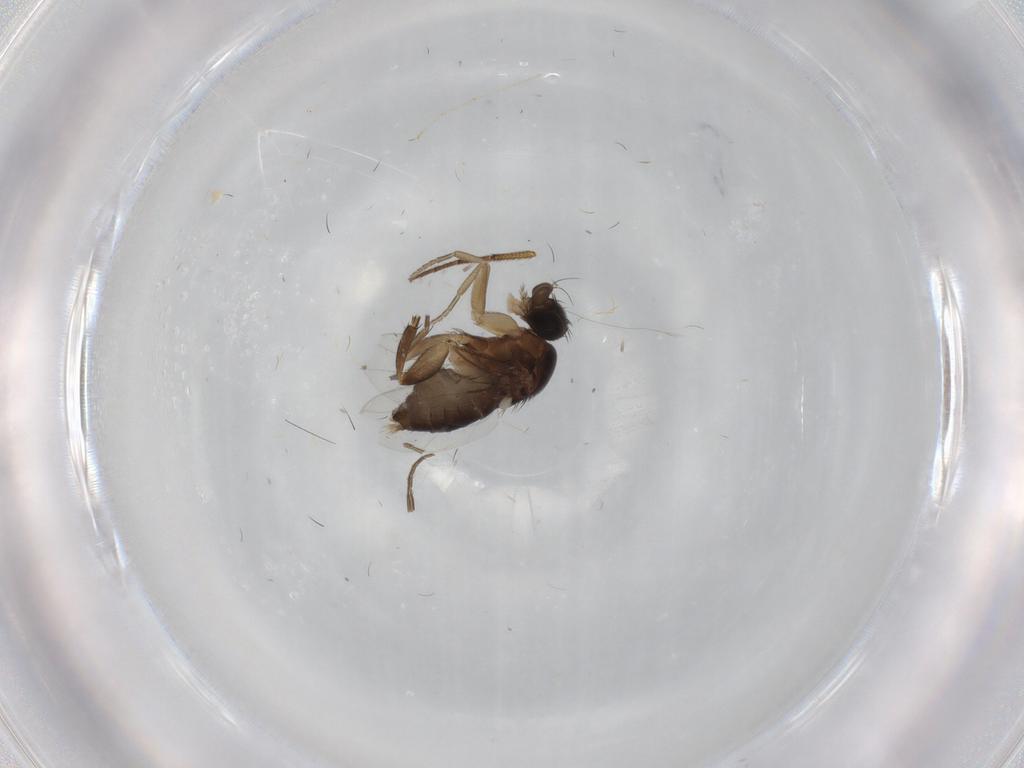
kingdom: Animalia
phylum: Arthropoda
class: Insecta
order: Diptera
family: Phoridae
